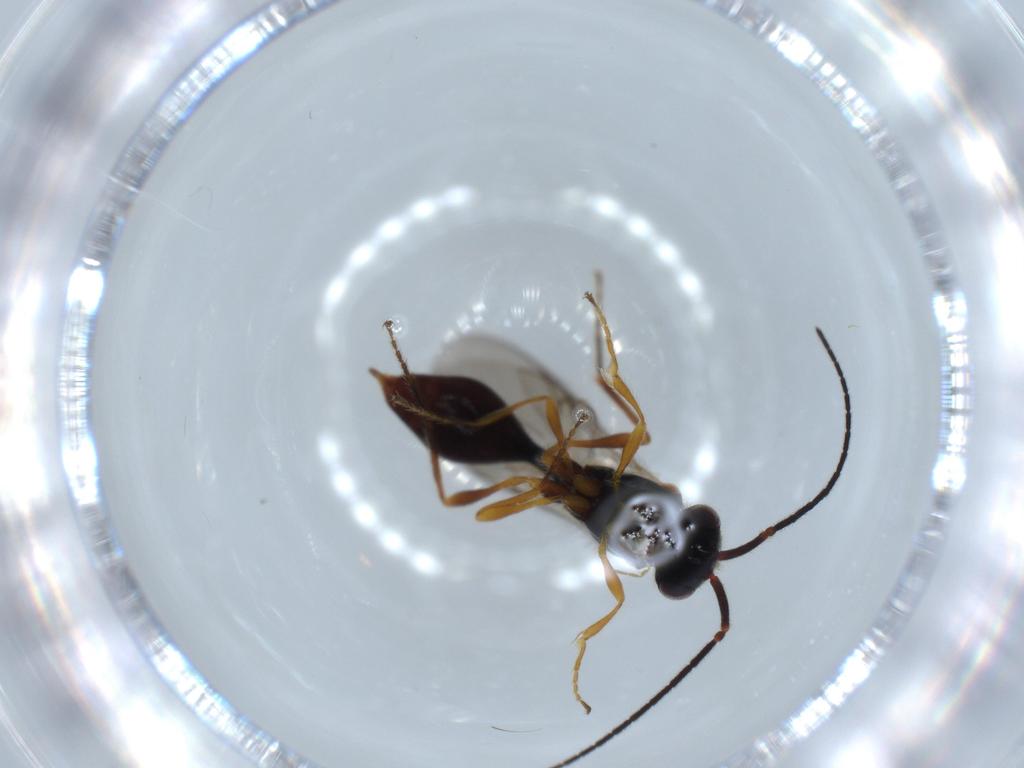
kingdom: Animalia
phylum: Arthropoda
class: Insecta
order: Hymenoptera
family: Diapriidae
